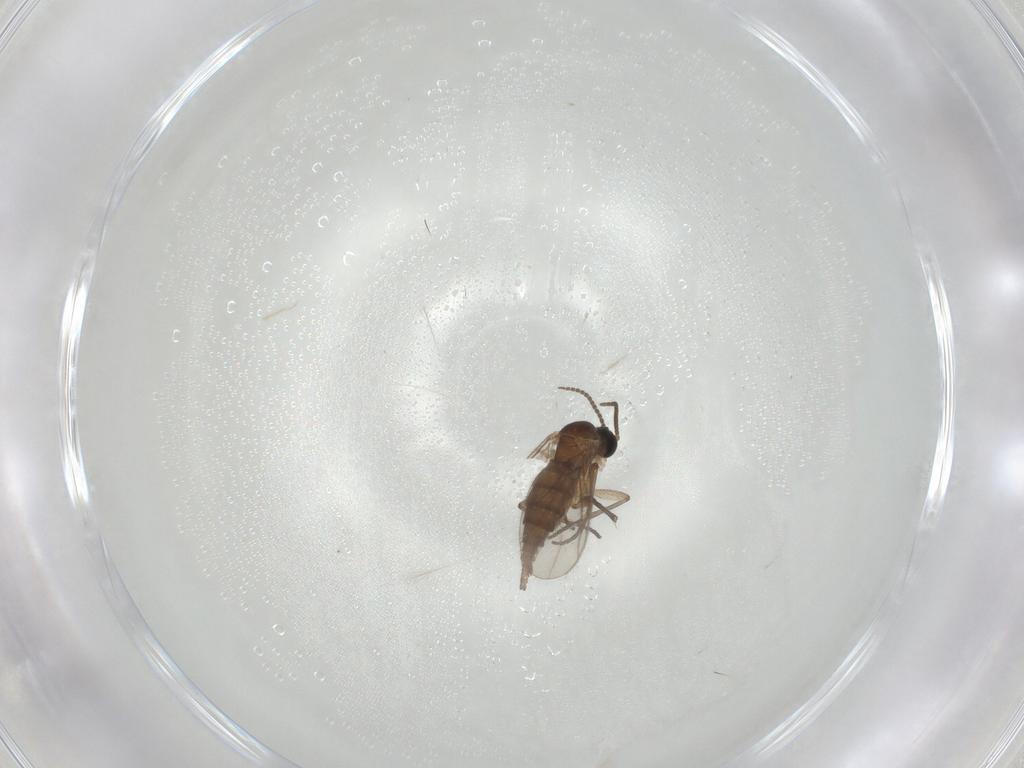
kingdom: Animalia
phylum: Arthropoda
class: Insecta
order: Diptera
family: Sciaridae
